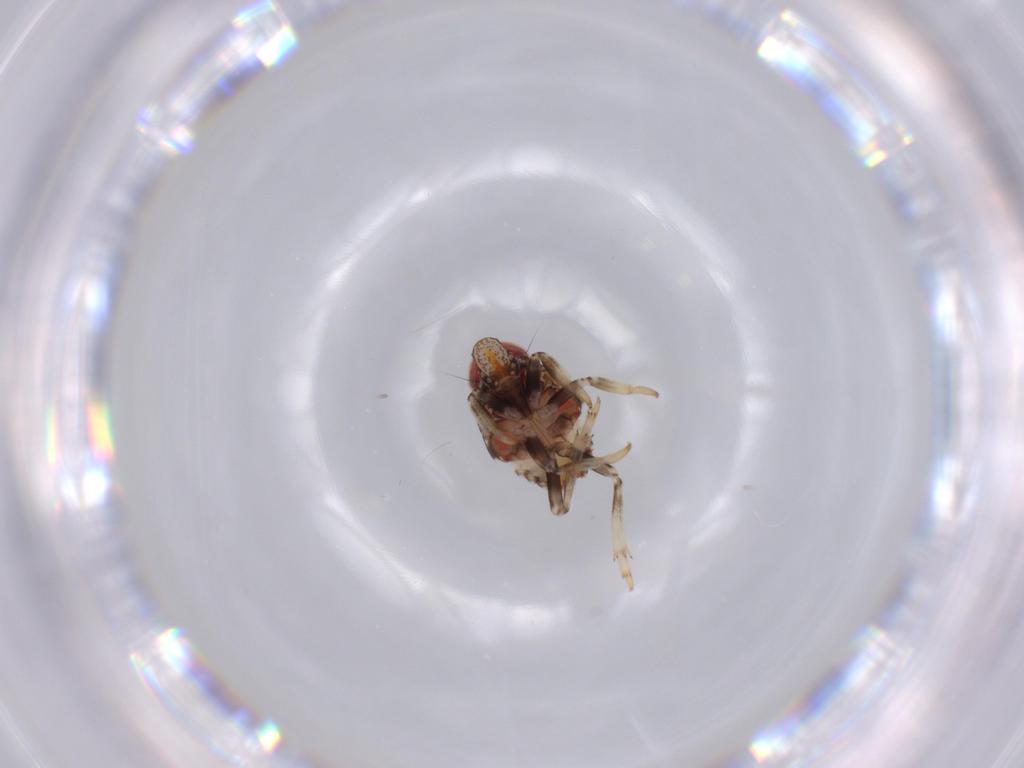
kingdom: Animalia
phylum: Arthropoda
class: Insecta
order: Hemiptera
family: Issidae
